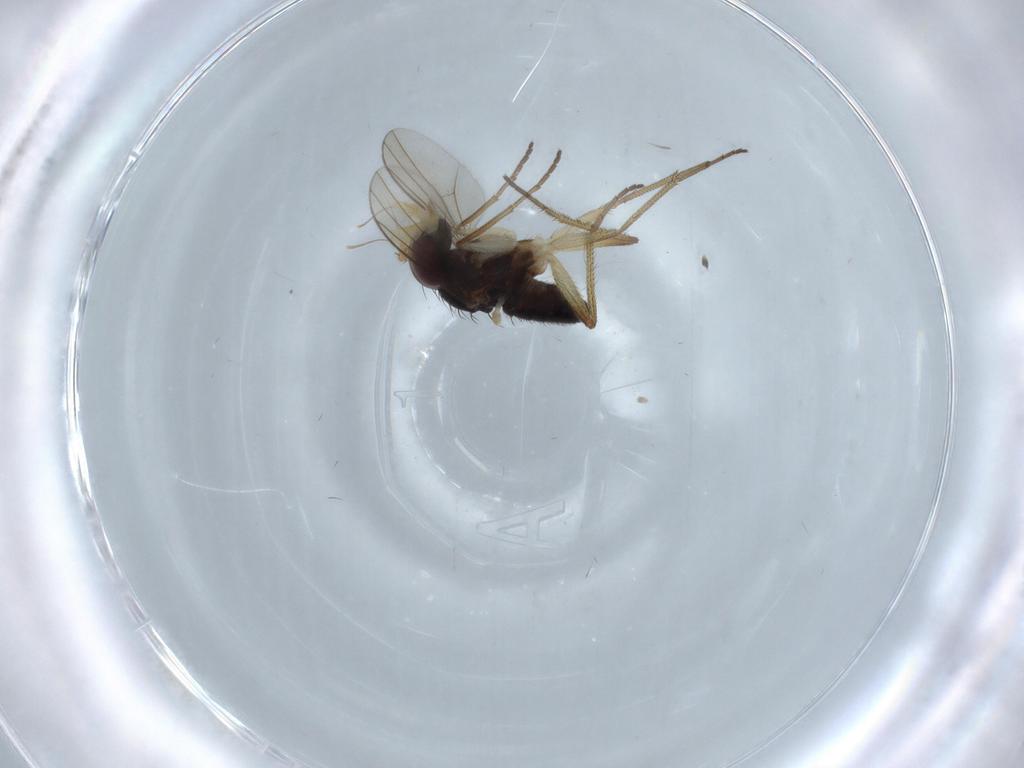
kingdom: Animalia
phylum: Arthropoda
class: Insecta
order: Diptera
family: Dolichopodidae
